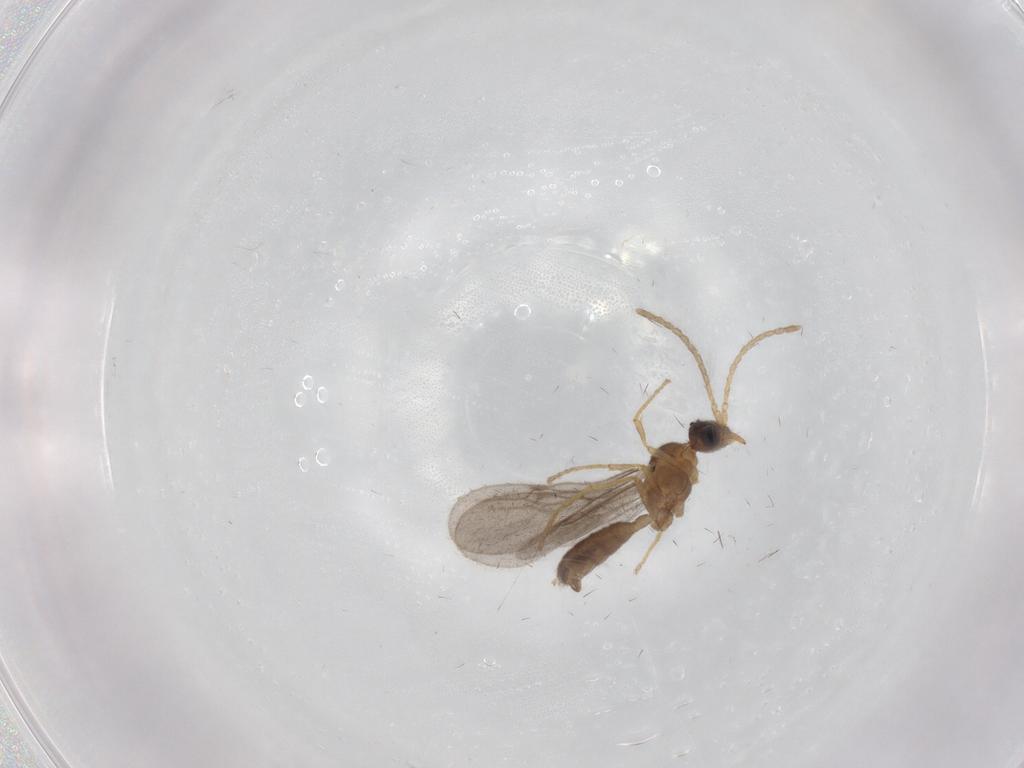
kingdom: Animalia
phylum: Arthropoda
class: Insecta
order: Hymenoptera
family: Formicidae
